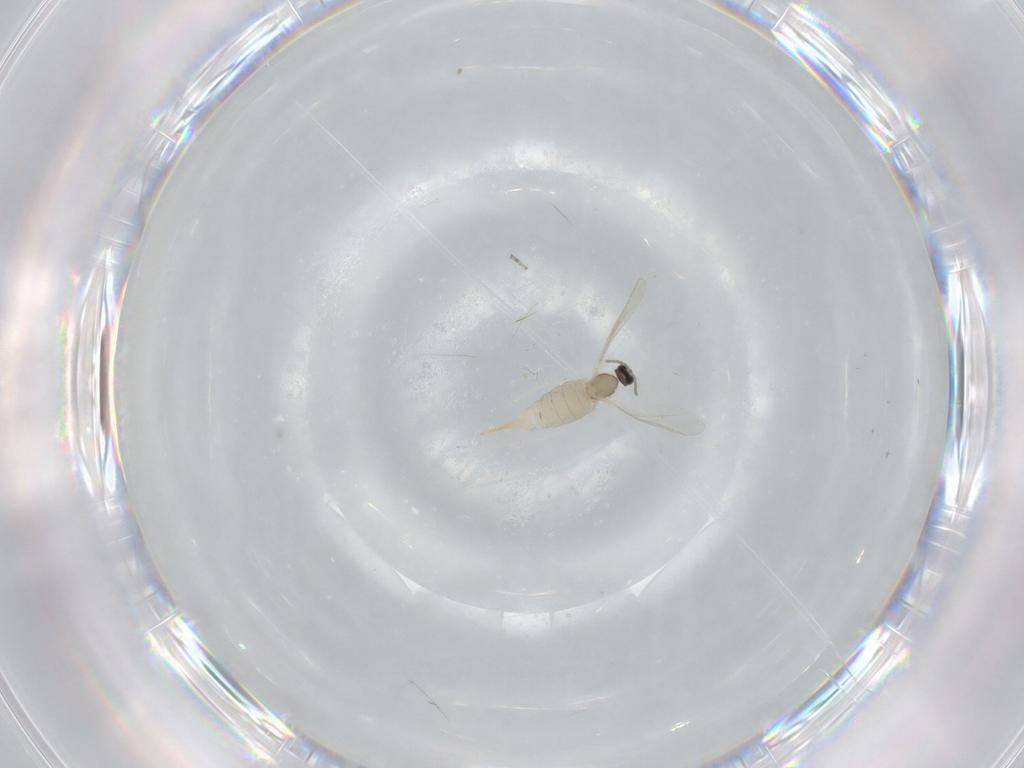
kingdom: Animalia
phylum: Arthropoda
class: Insecta
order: Diptera
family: Cecidomyiidae
